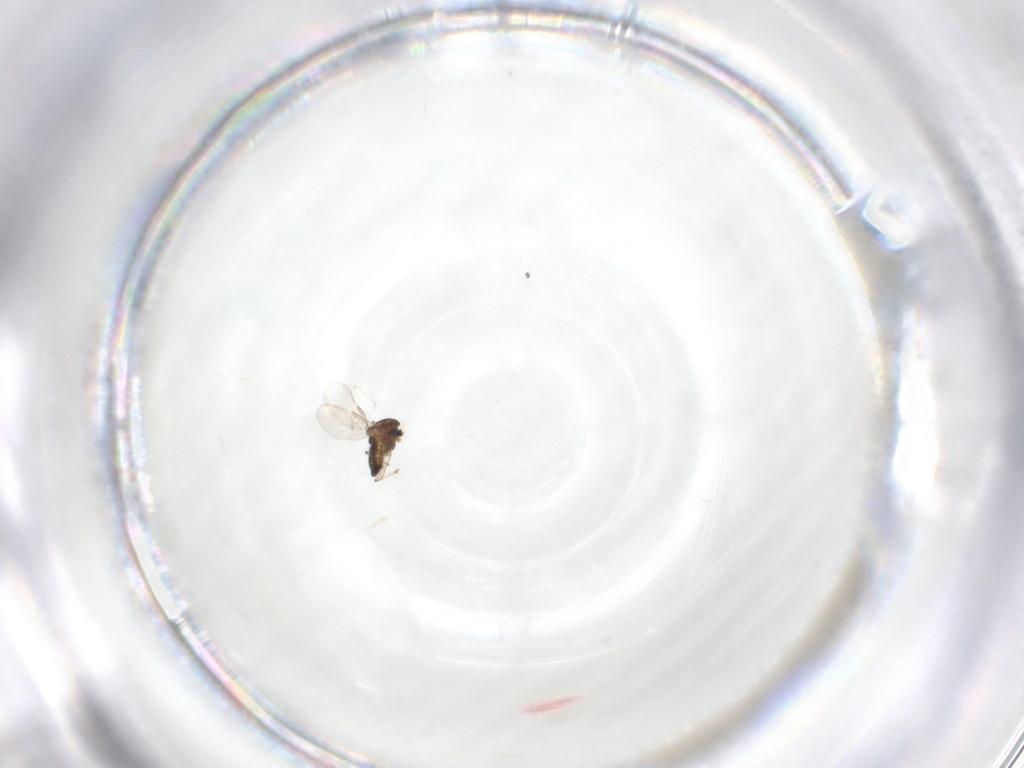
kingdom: Animalia
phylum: Arthropoda
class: Insecta
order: Diptera
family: Chironomidae
